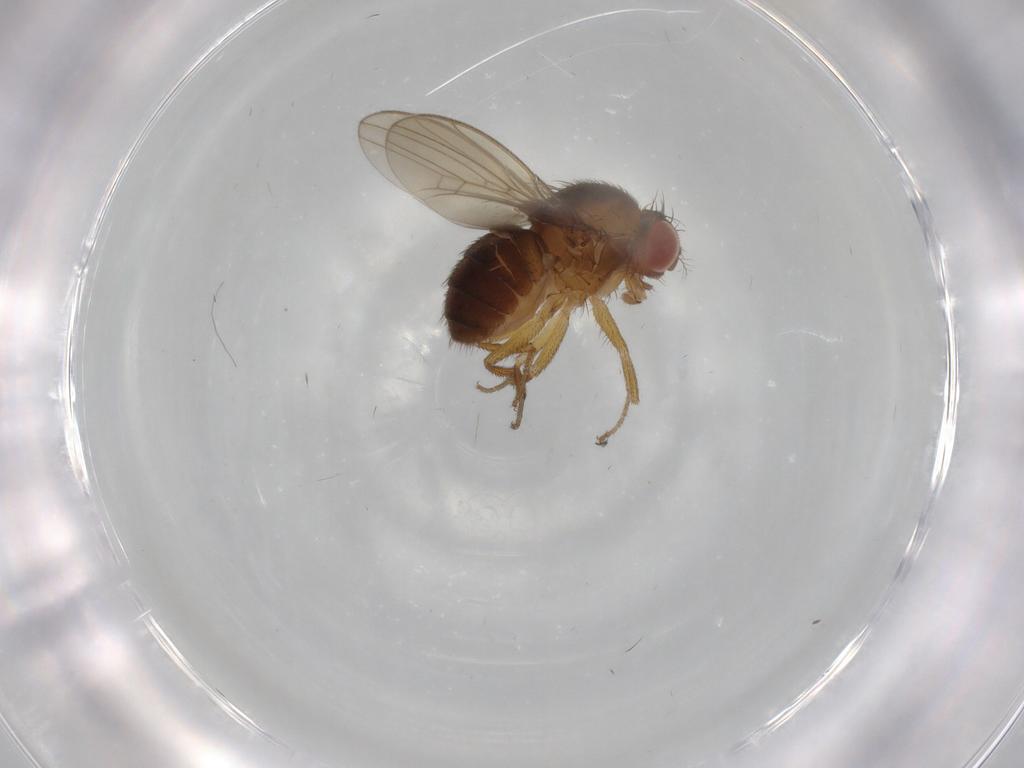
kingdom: Animalia
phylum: Arthropoda
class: Insecta
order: Diptera
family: Drosophilidae
